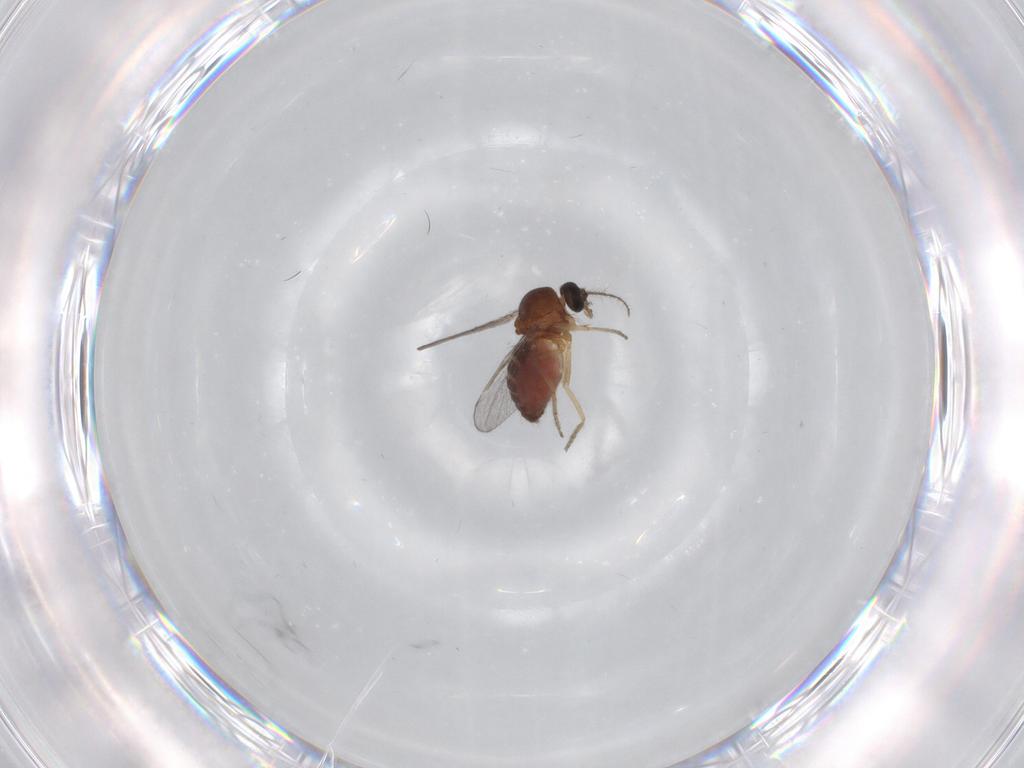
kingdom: Animalia
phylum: Arthropoda
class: Insecta
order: Diptera
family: Ceratopogonidae
